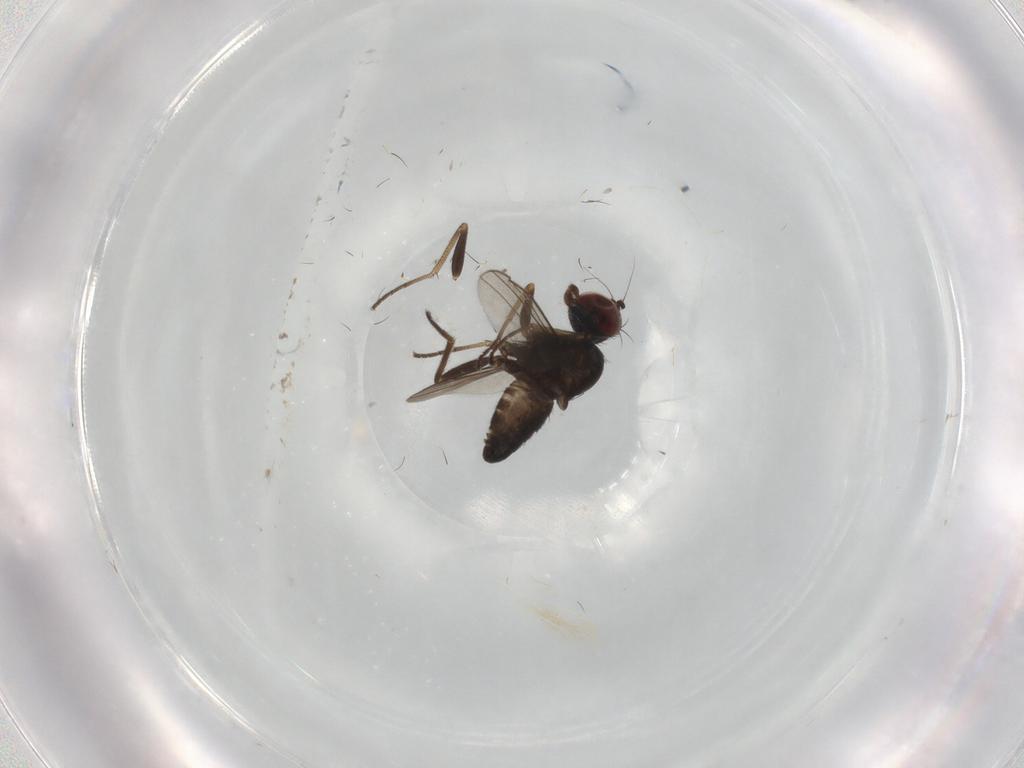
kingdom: Animalia
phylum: Arthropoda
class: Insecta
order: Diptera
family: Dolichopodidae
